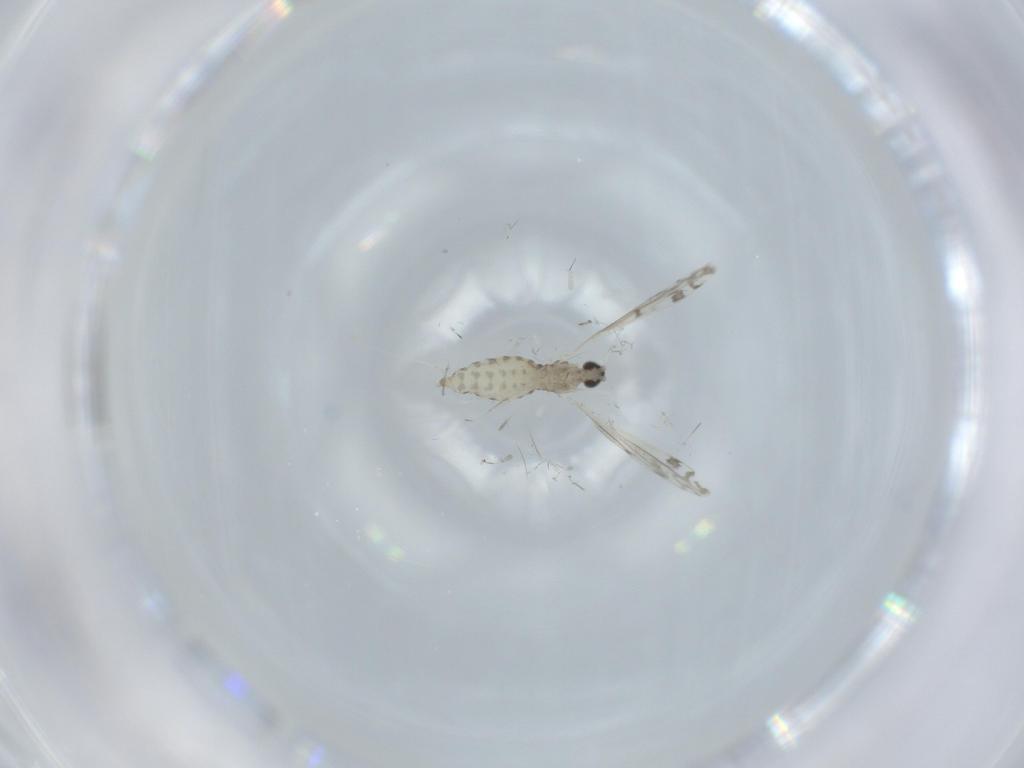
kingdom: Animalia
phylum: Arthropoda
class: Insecta
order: Diptera
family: Cecidomyiidae
